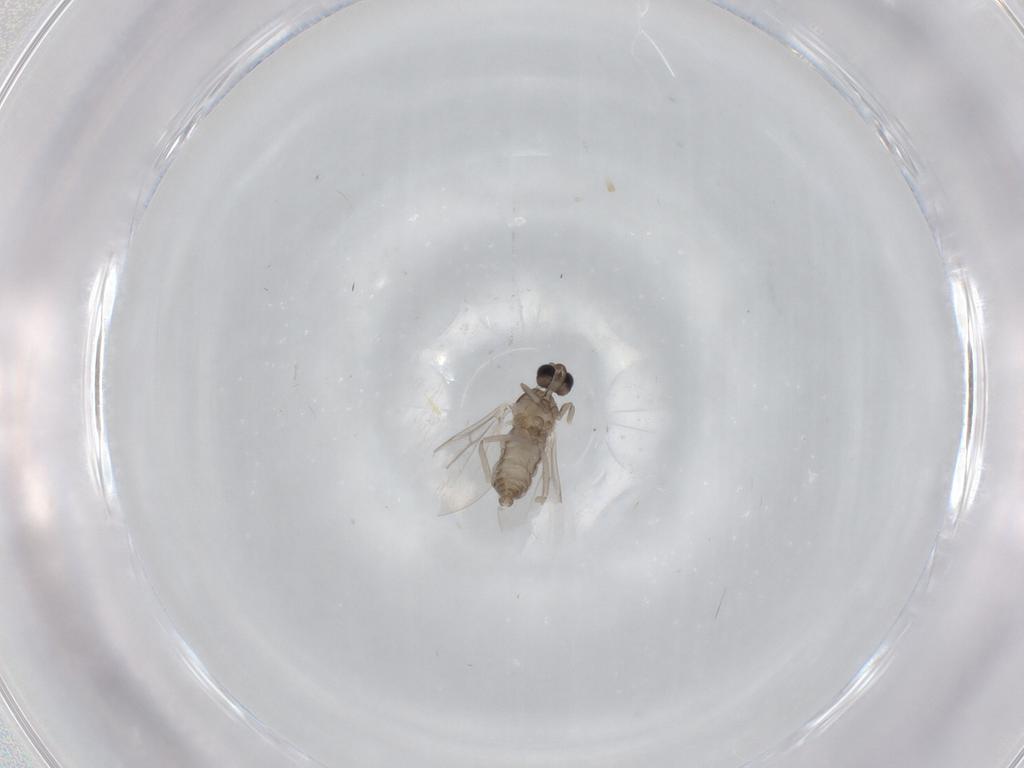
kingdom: Animalia
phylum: Arthropoda
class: Insecta
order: Diptera
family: Cecidomyiidae
